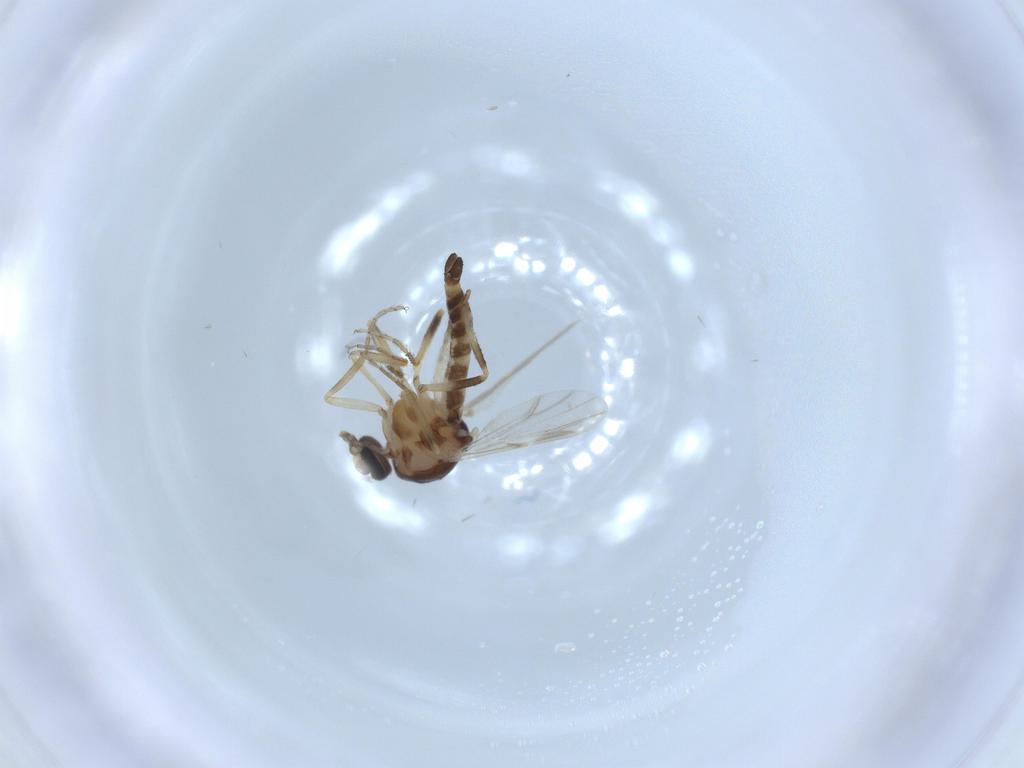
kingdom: Animalia
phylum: Arthropoda
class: Insecta
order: Diptera
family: Ceratopogonidae
